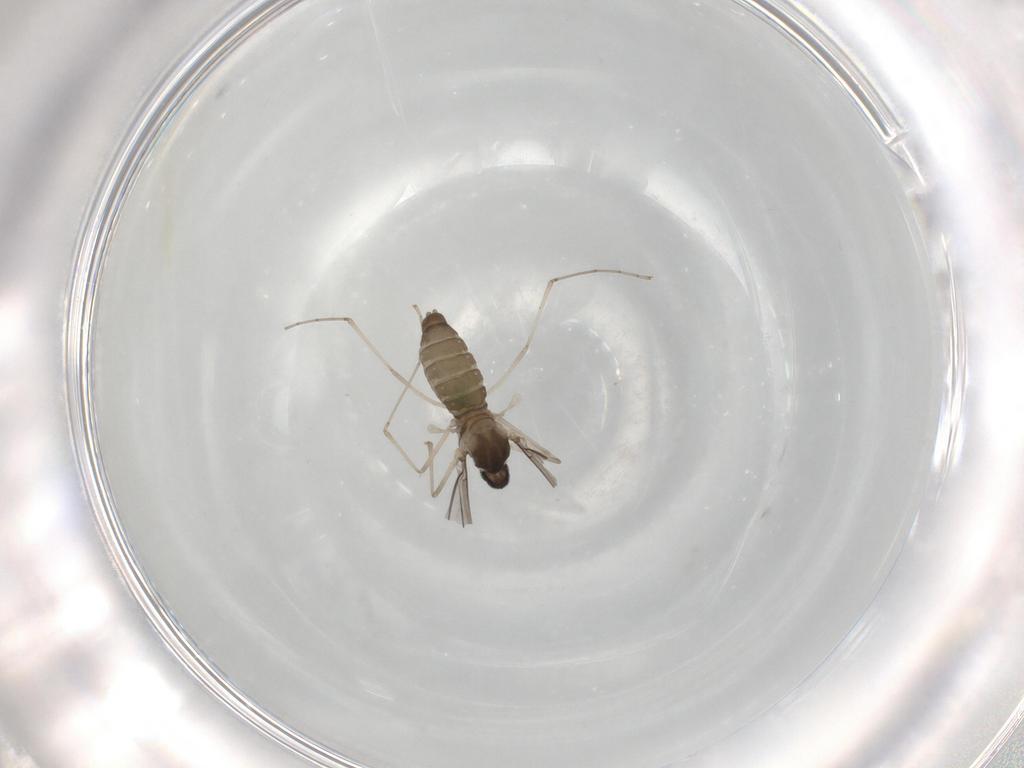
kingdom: Animalia
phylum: Arthropoda
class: Insecta
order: Diptera
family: Cecidomyiidae
